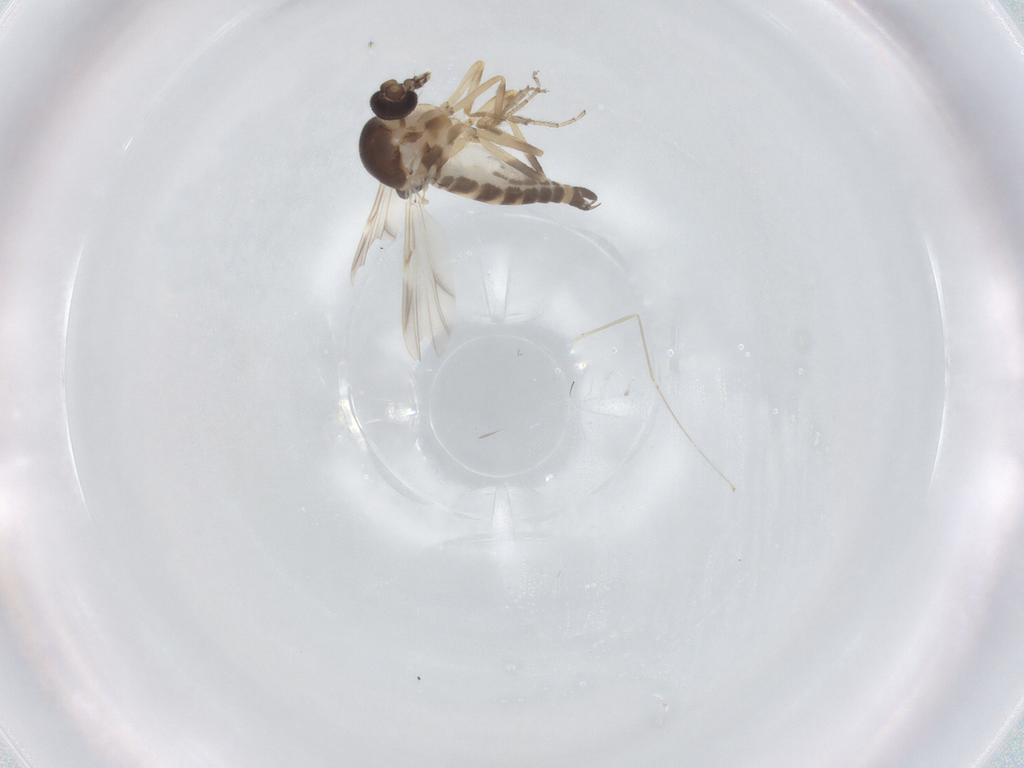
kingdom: Animalia
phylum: Arthropoda
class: Insecta
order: Diptera
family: Ceratopogonidae
